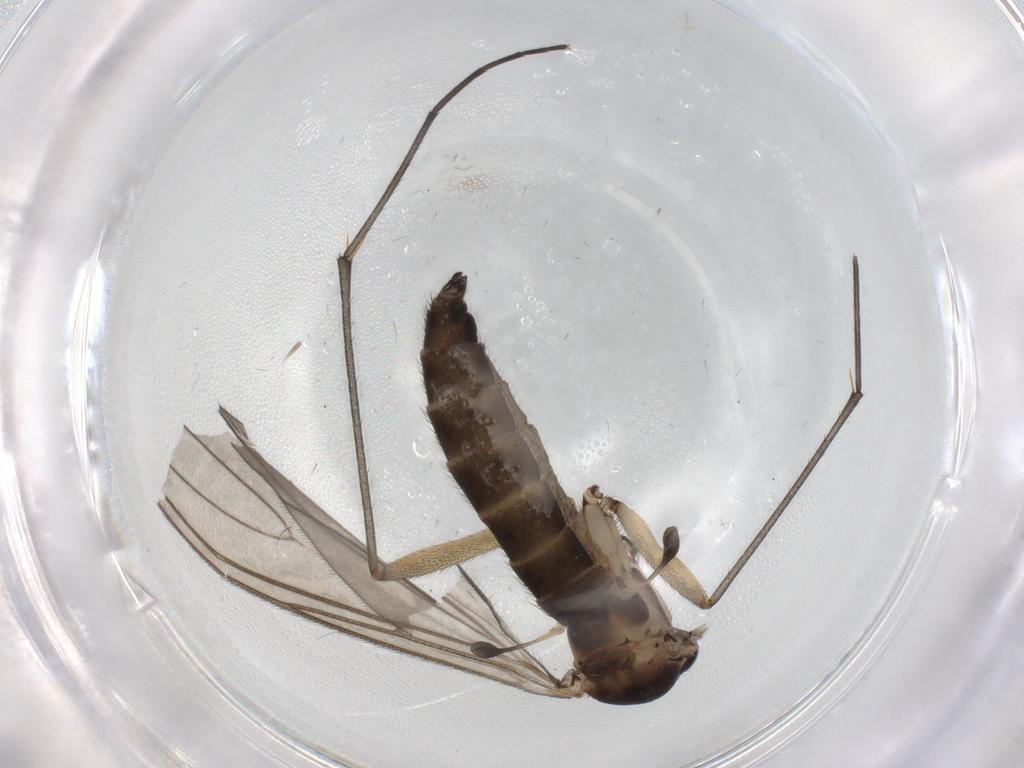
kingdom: Animalia
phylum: Arthropoda
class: Insecta
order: Diptera
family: Sciaridae
